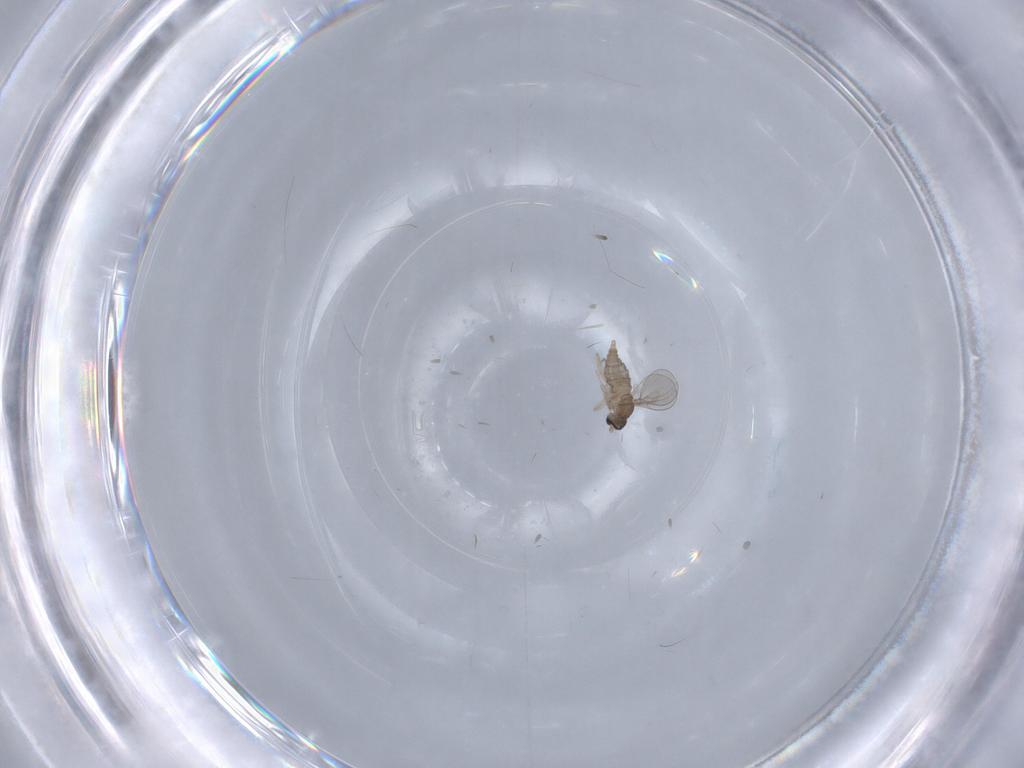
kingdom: Animalia
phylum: Arthropoda
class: Insecta
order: Diptera
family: Cecidomyiidae
